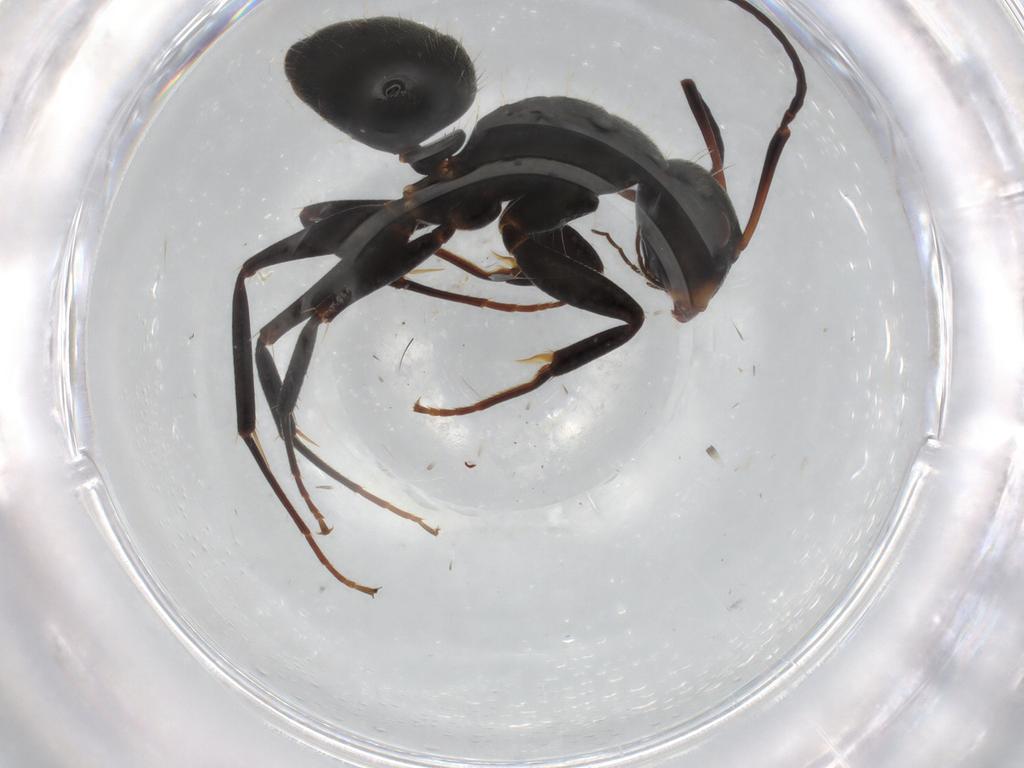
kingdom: Animalia
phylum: Arthropoda
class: Insecta
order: Hymenoptera
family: Formicidae
